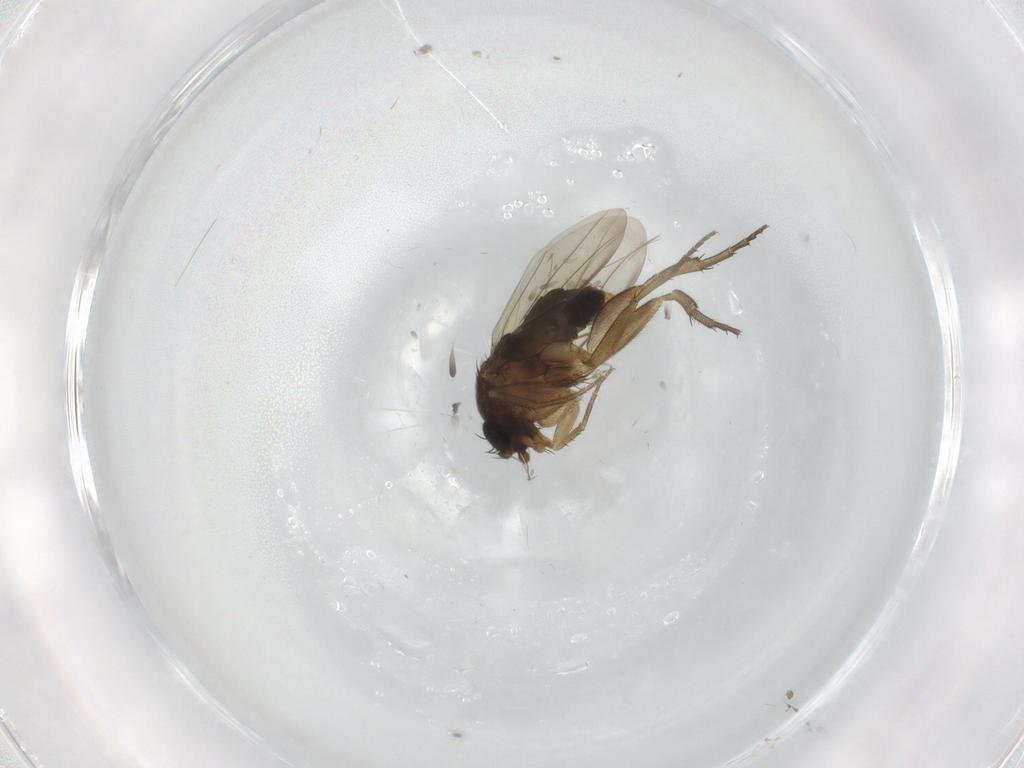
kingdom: Animalia
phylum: Arthropoda
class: Insecta
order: Diptera
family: Phoridae
